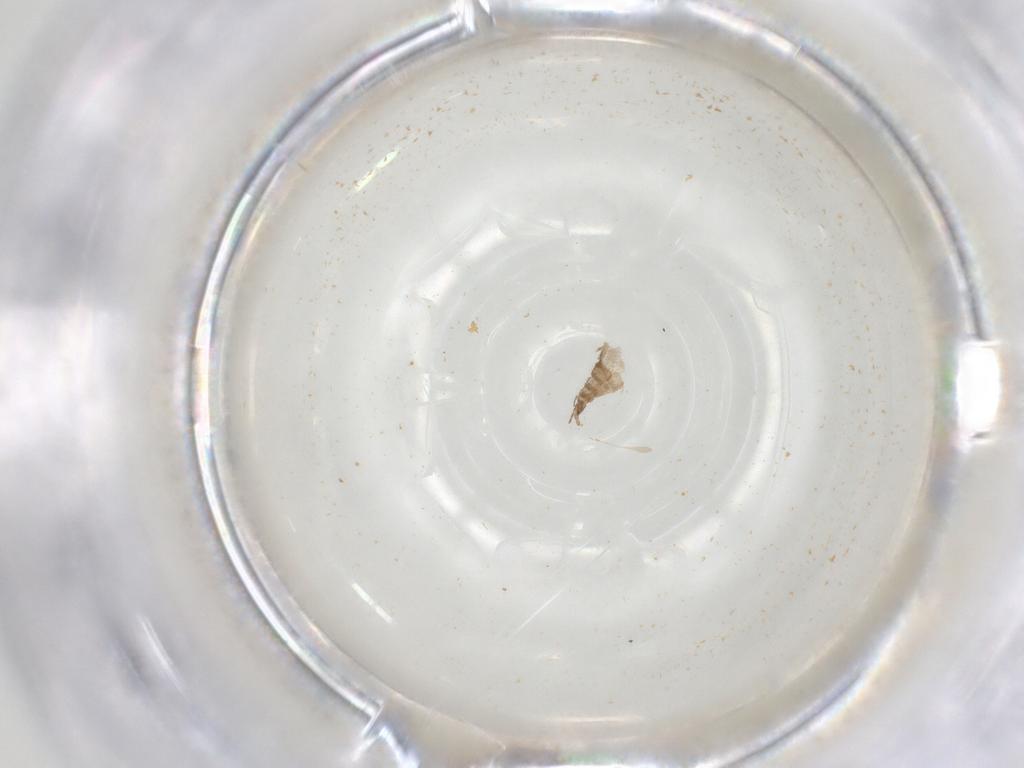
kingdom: Animalia
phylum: Arthropoda
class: Insecta
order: Diptera
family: Sciaridae
